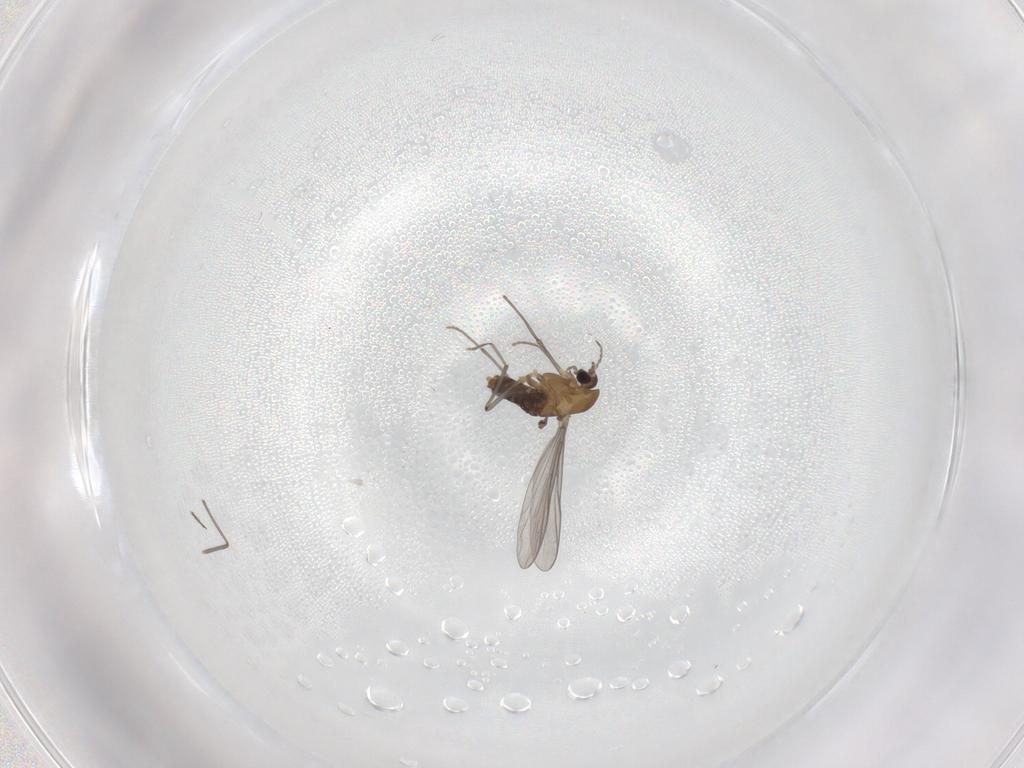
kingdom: Animalia
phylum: Arthropoda
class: Insecta
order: Diptera
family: Chironomidae
